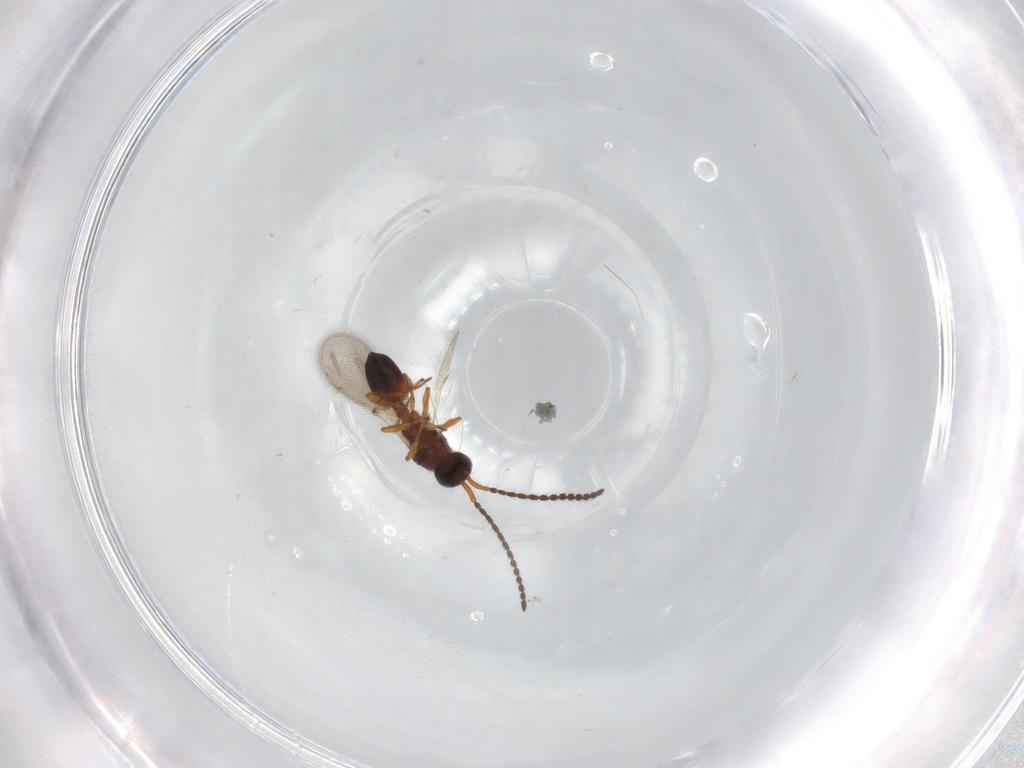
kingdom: Animalia
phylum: Arthropoda
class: Insecta
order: Hymenoptera
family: Diapriidae
